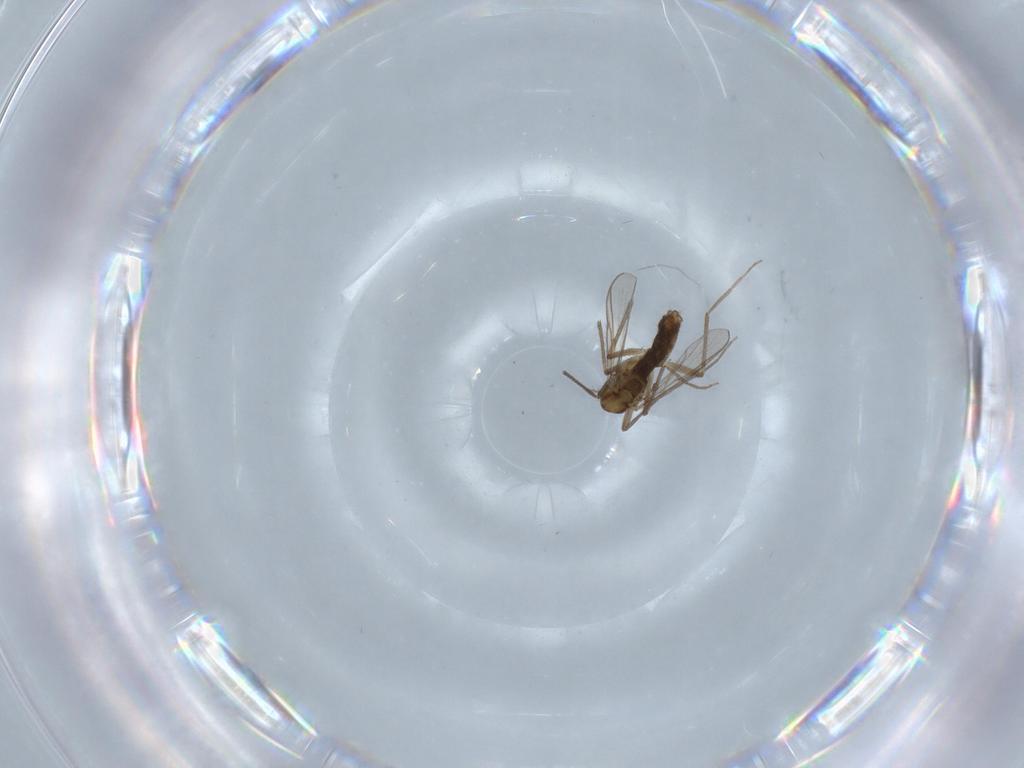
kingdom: Animalia
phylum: Arthropoda
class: Insecta
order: Diptera
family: Chironomidae
